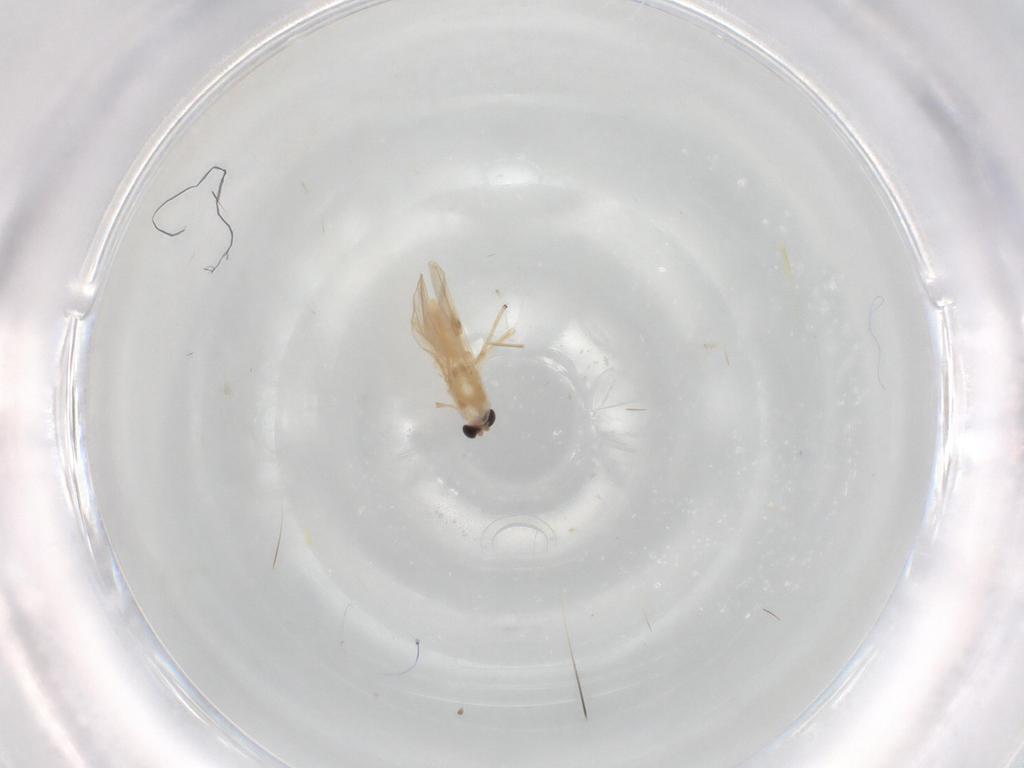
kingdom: Animalia
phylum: Arthropoda
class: Insecta
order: Diptera
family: Chironomidae
